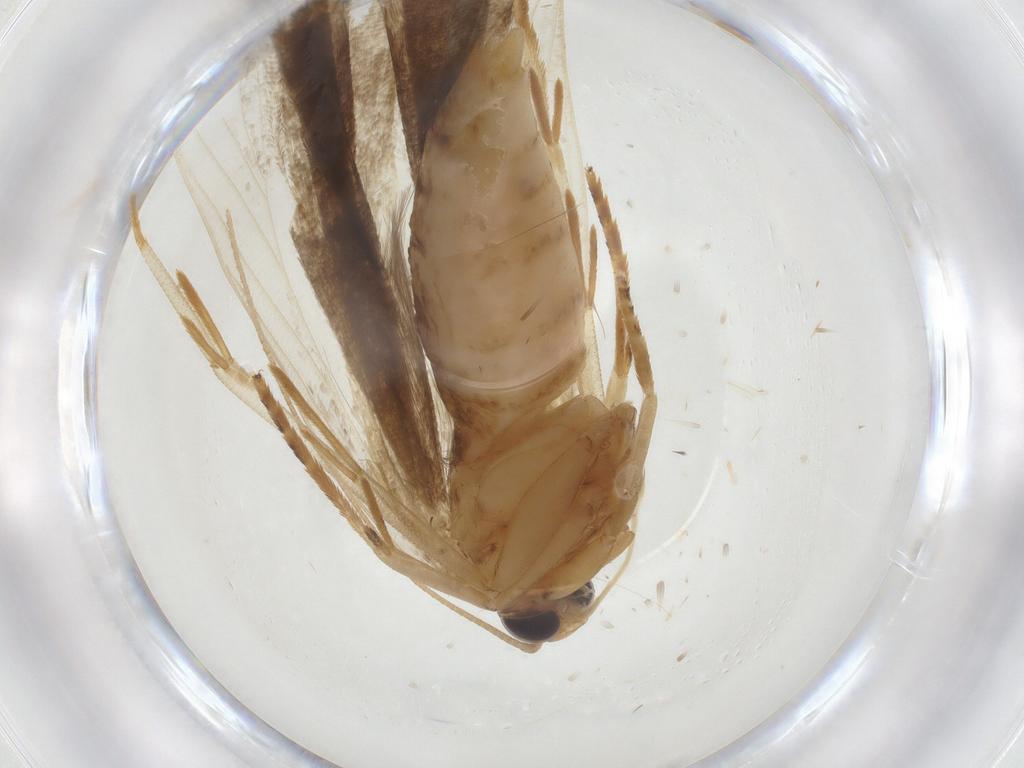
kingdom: Animalia
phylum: Arthropoda
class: Insecta
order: Lepidoptera
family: Erebidae
